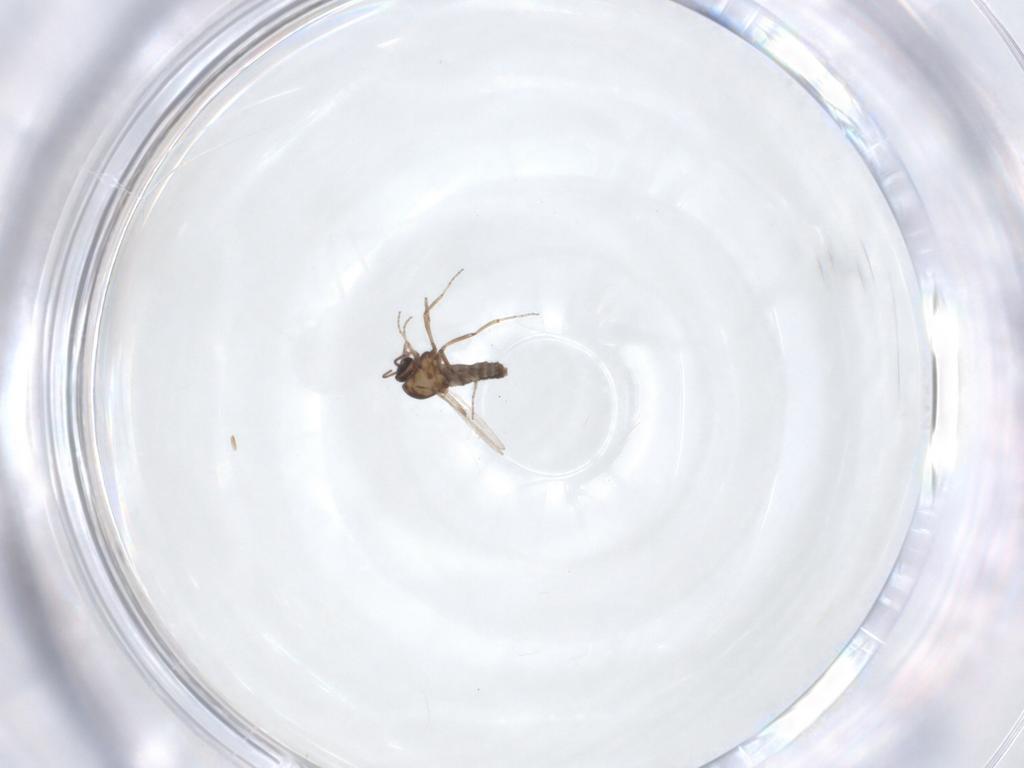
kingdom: Animalia
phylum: Arthropoda
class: Insecta
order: Diptera
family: Ceratopogonidae
